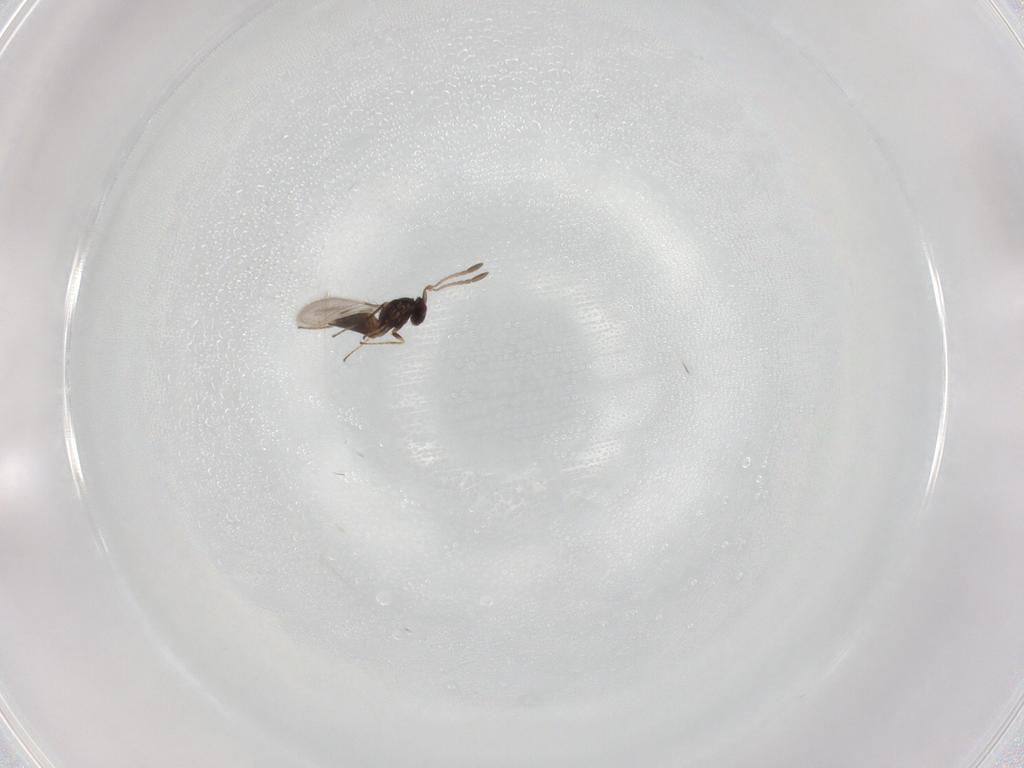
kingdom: Animalia
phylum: Arthropoda
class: Insecta
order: Hymenoptera
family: Mymaridae
